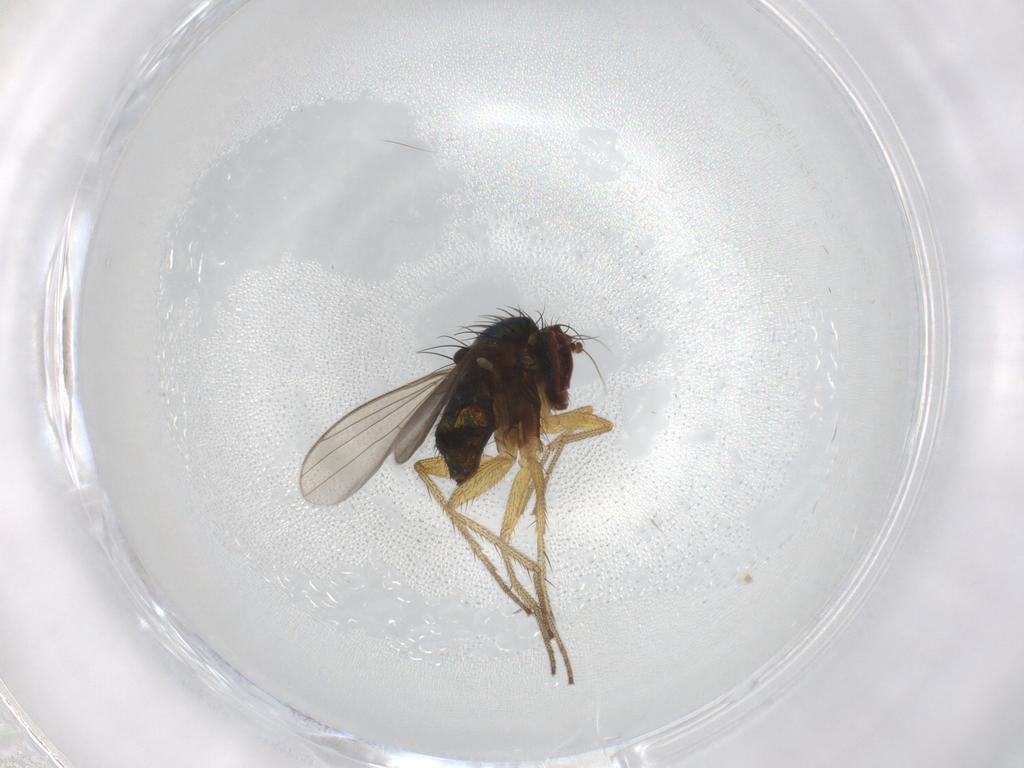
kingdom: Animalia
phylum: Arthropoda
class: Insecta
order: Diptera
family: Dolichopodidae
